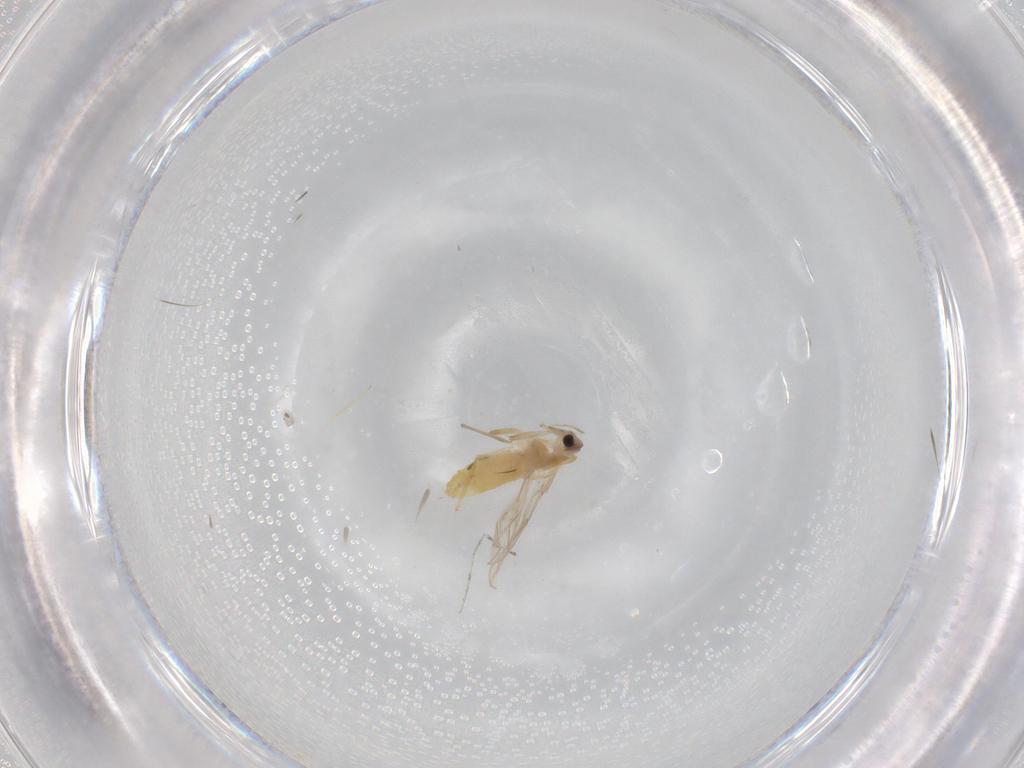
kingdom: Animalia
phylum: Arthropoda
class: Insecta
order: Diptera
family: Chironomidae
